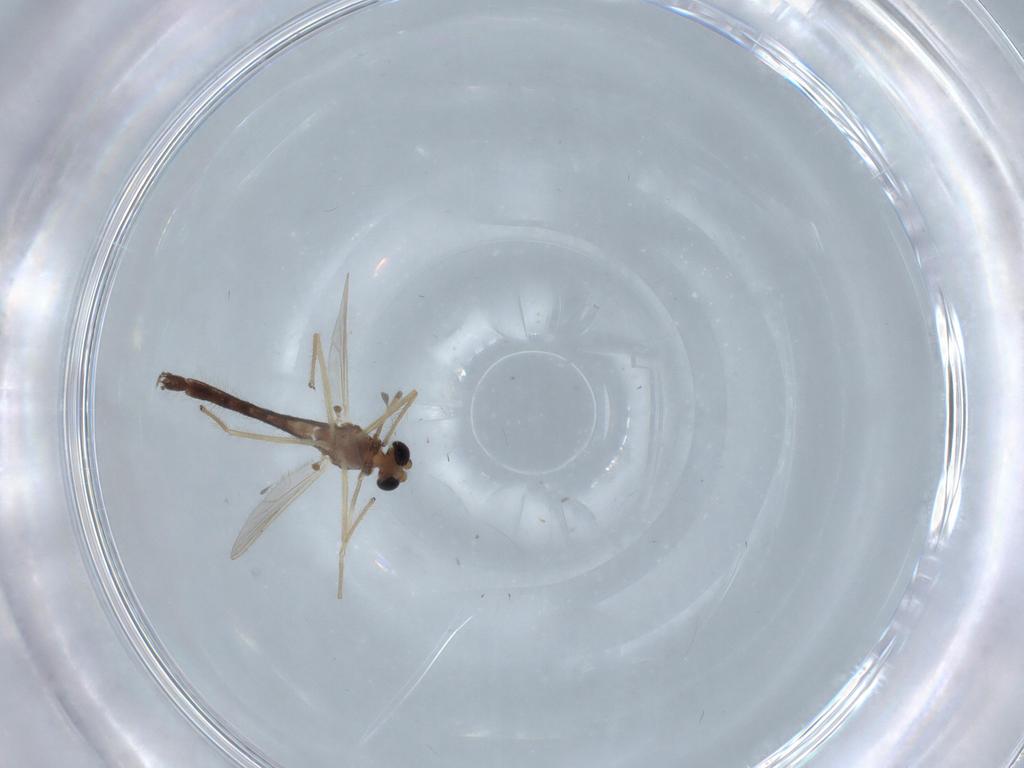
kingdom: Animalia
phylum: Arthropoda
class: Insecta
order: Diptera
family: Chironomidae
